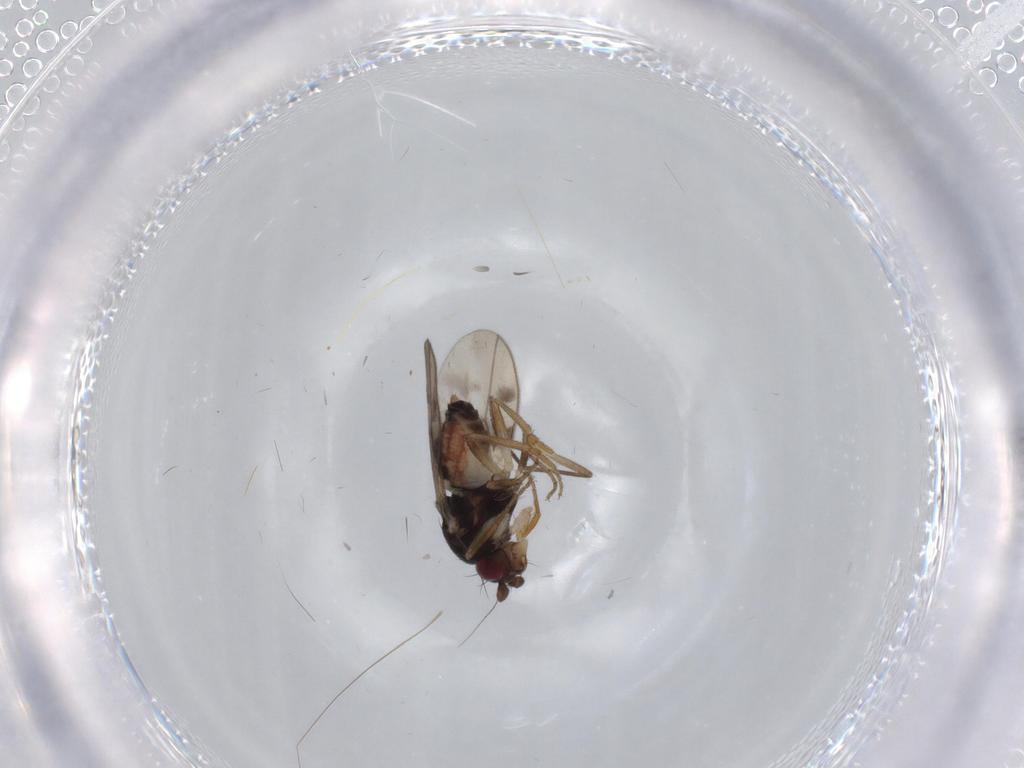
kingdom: Animalia
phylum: Arthropoda
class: Insecta
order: Diptera
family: Sphaeroceridae
